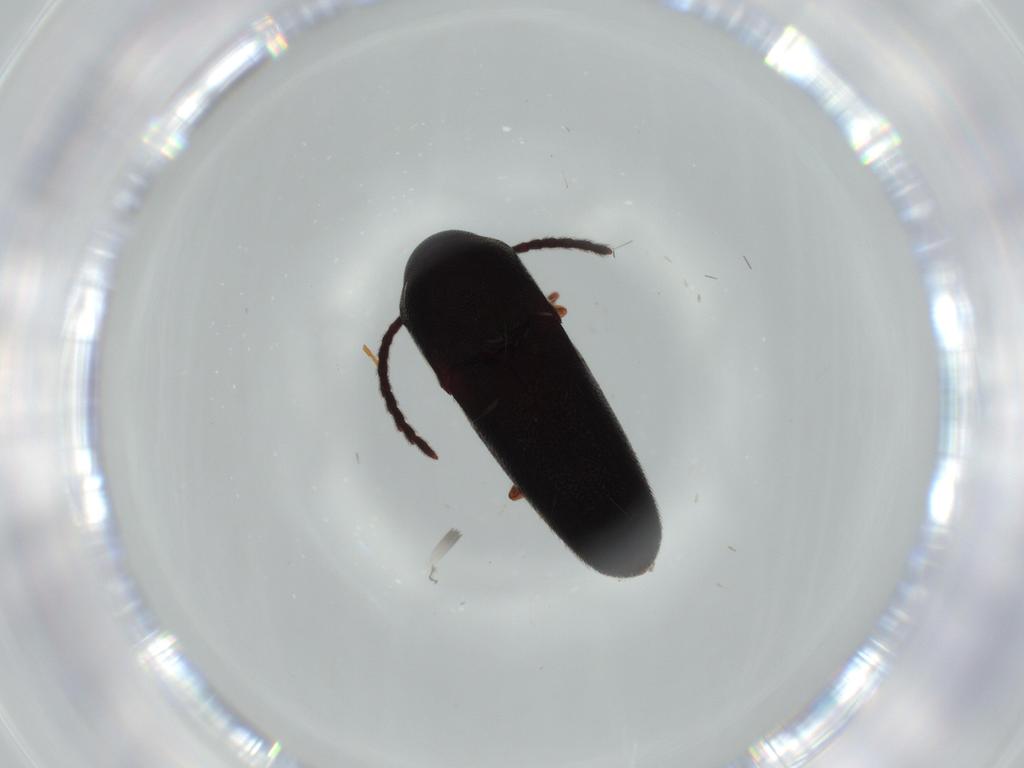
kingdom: Animalia
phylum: Arthropoda
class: Insecta
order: Coleoptera
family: Eucnemidae
